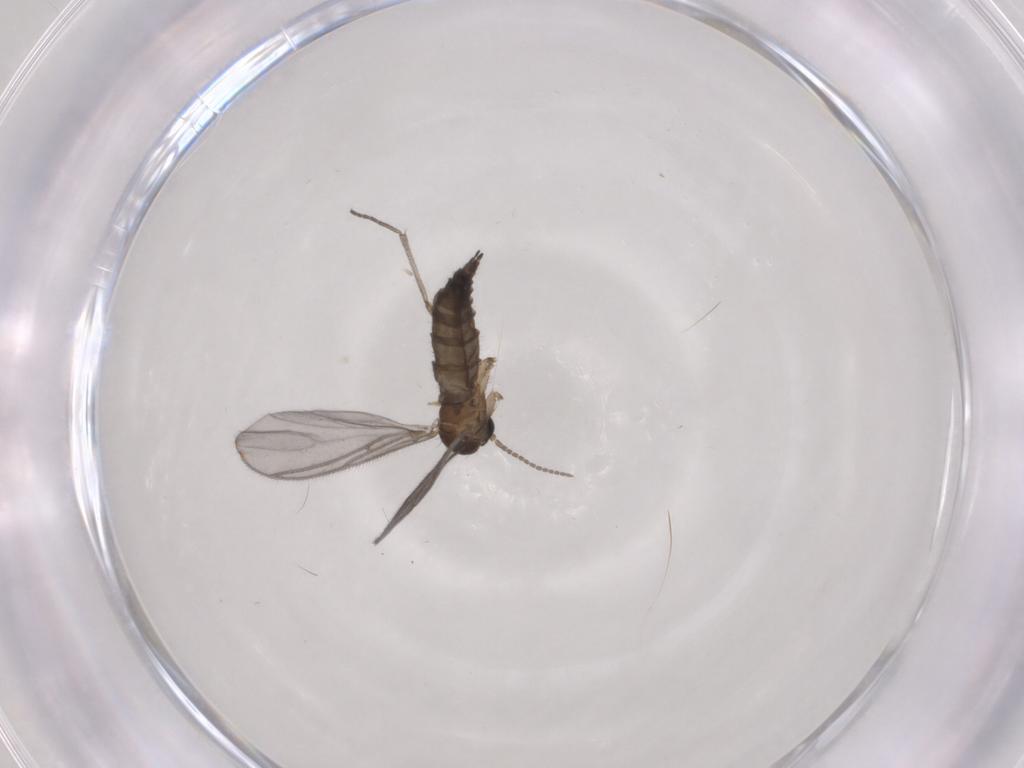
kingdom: Animalia
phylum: Arthropoda
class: Insecta
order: Diptera
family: Sciaridae
